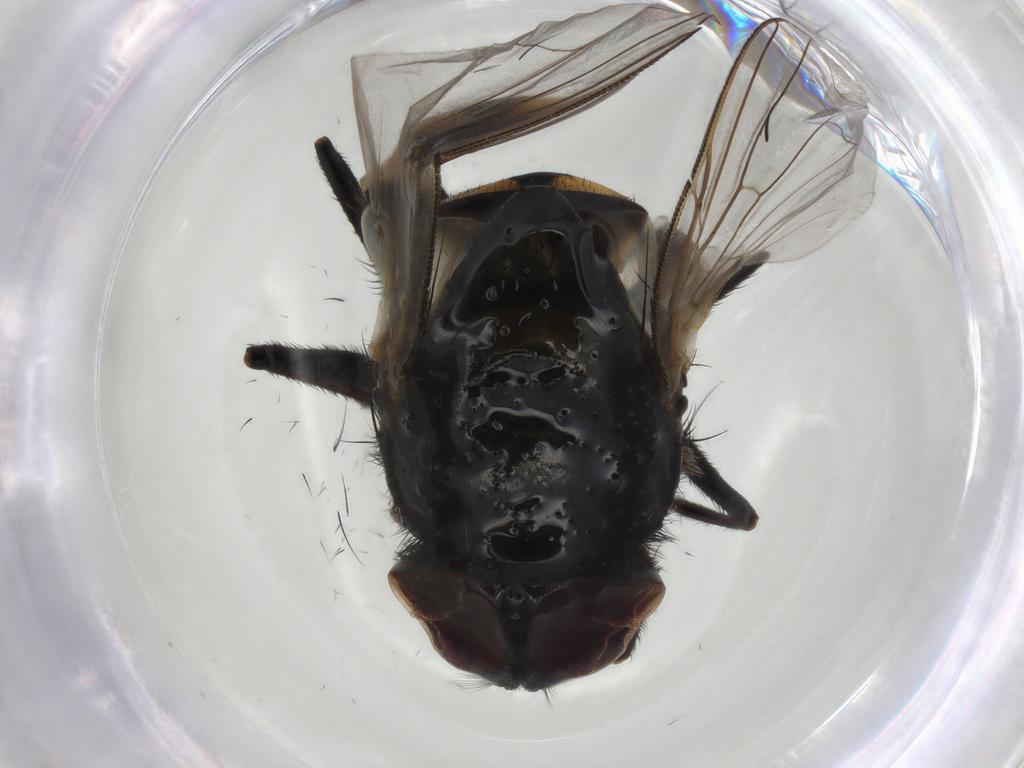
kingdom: Animalia
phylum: Arthropoda
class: Insecta
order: Diptera
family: Muscidae
